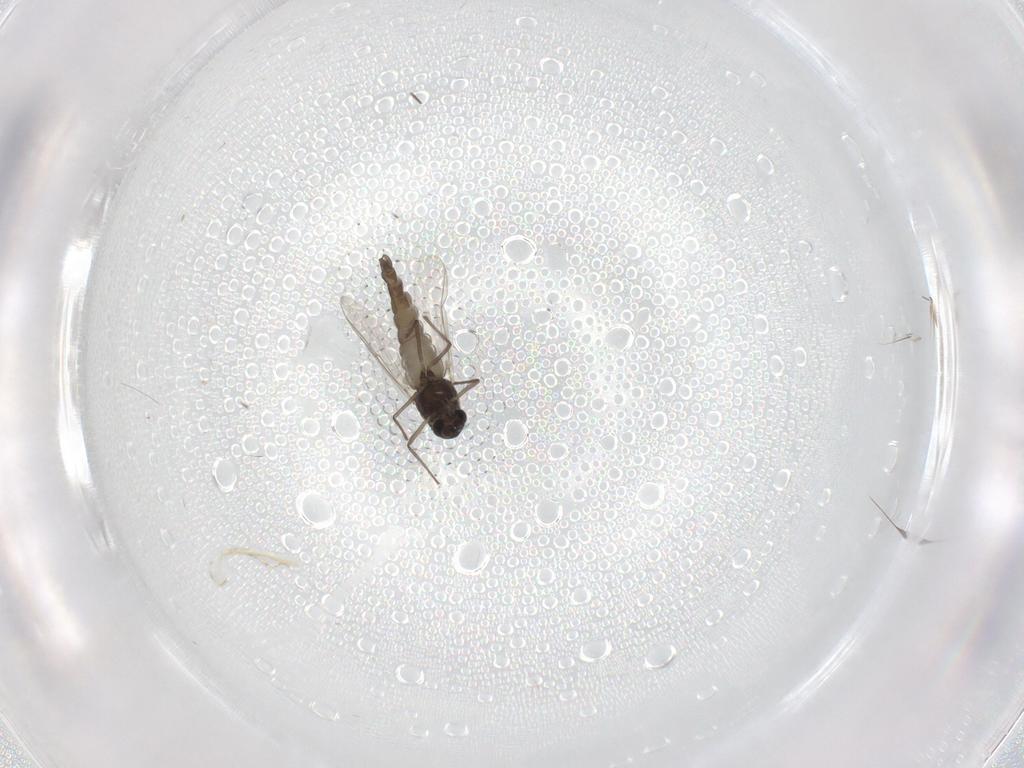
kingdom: Animalia
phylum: Arthropoda
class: Insecta
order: Diptera
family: Chironomidae
